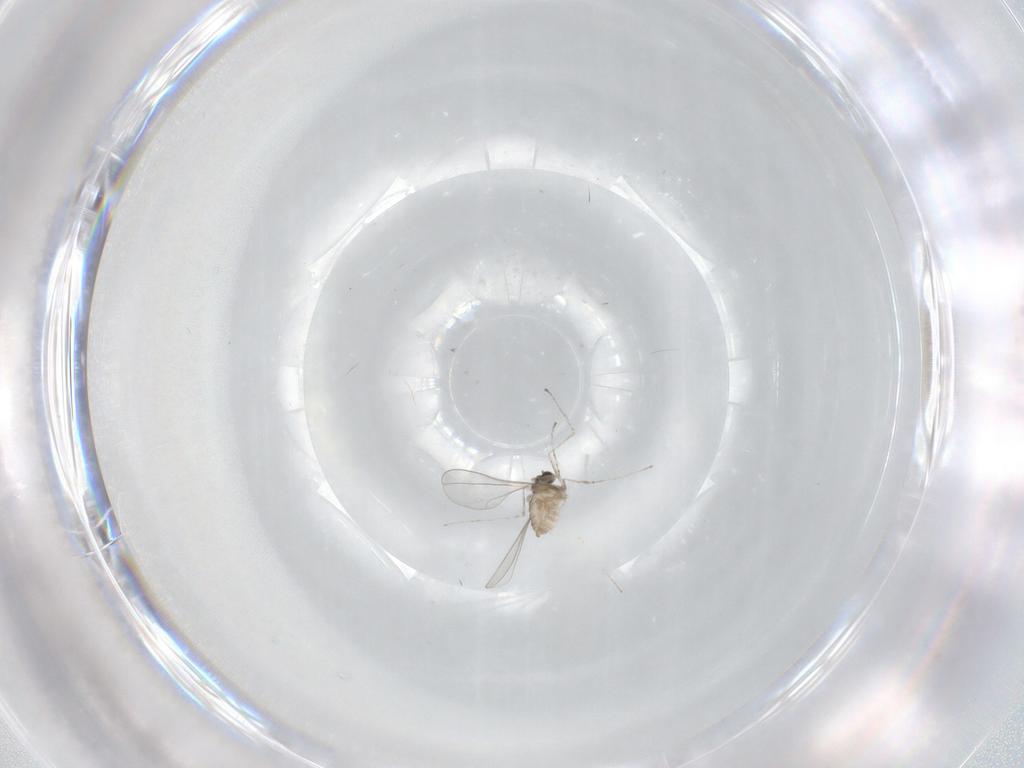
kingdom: Animalia
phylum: Arthropoda
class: Insecta
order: Diptera
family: Cecidomyiidae
